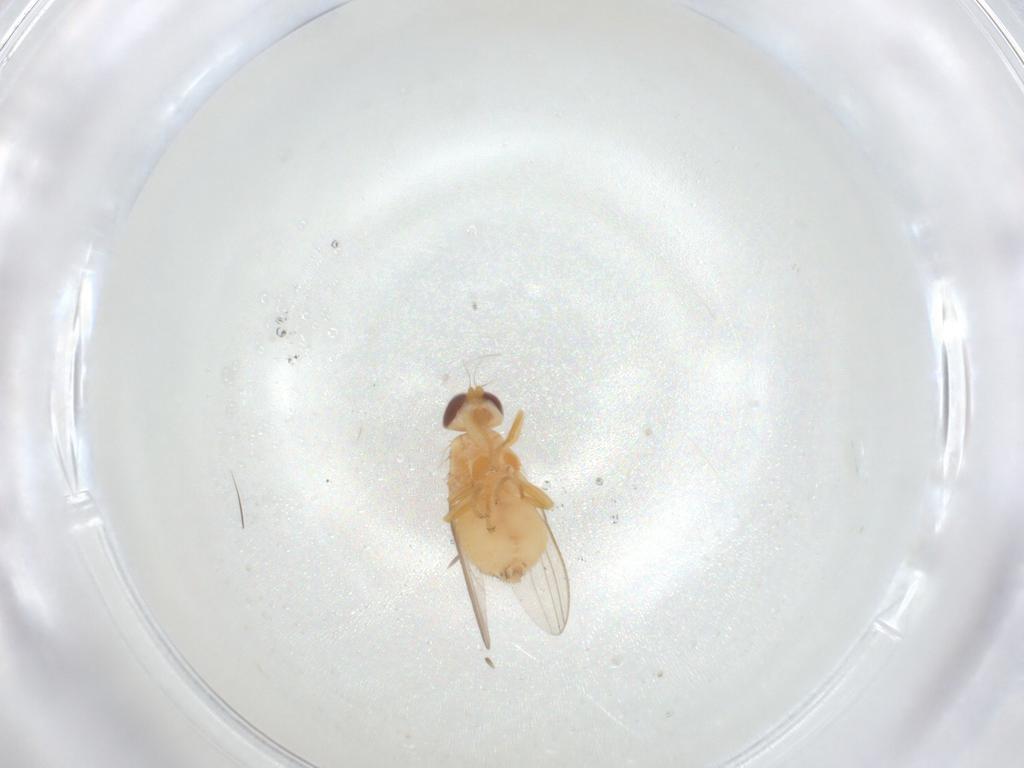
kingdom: Animalia
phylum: Arthropoda
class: Insecta
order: Diptera
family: Chyromyidae
